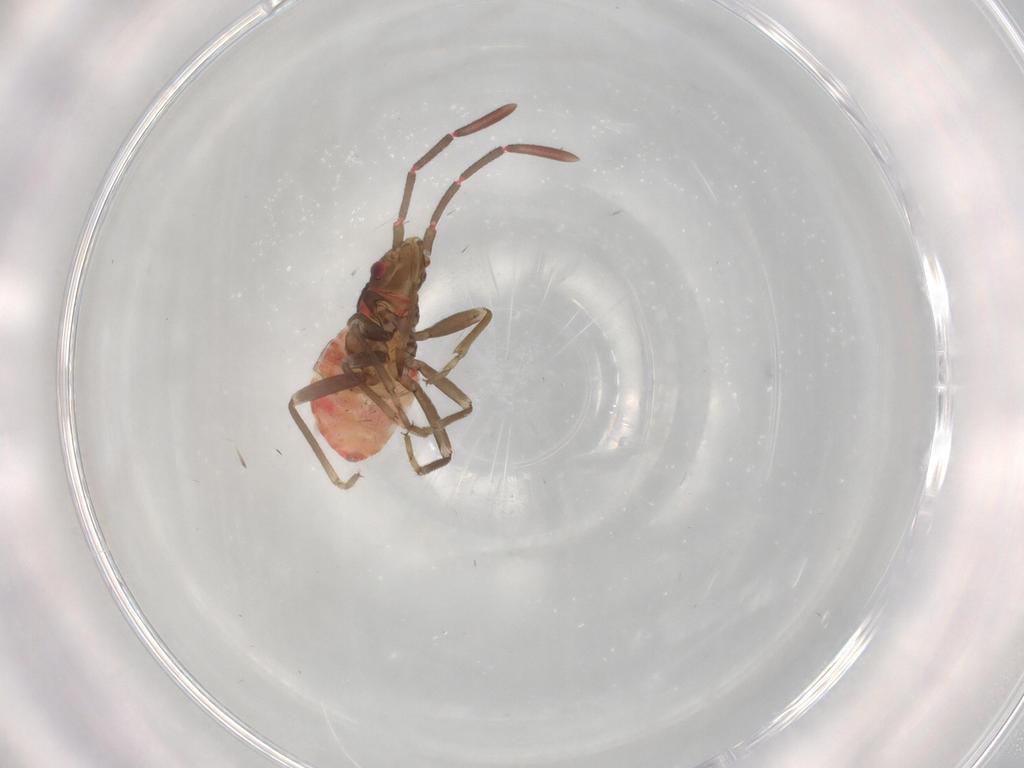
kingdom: Animalia
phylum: Arthropoda
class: Insecta
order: Hemiptera
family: Rhyparochromidae
